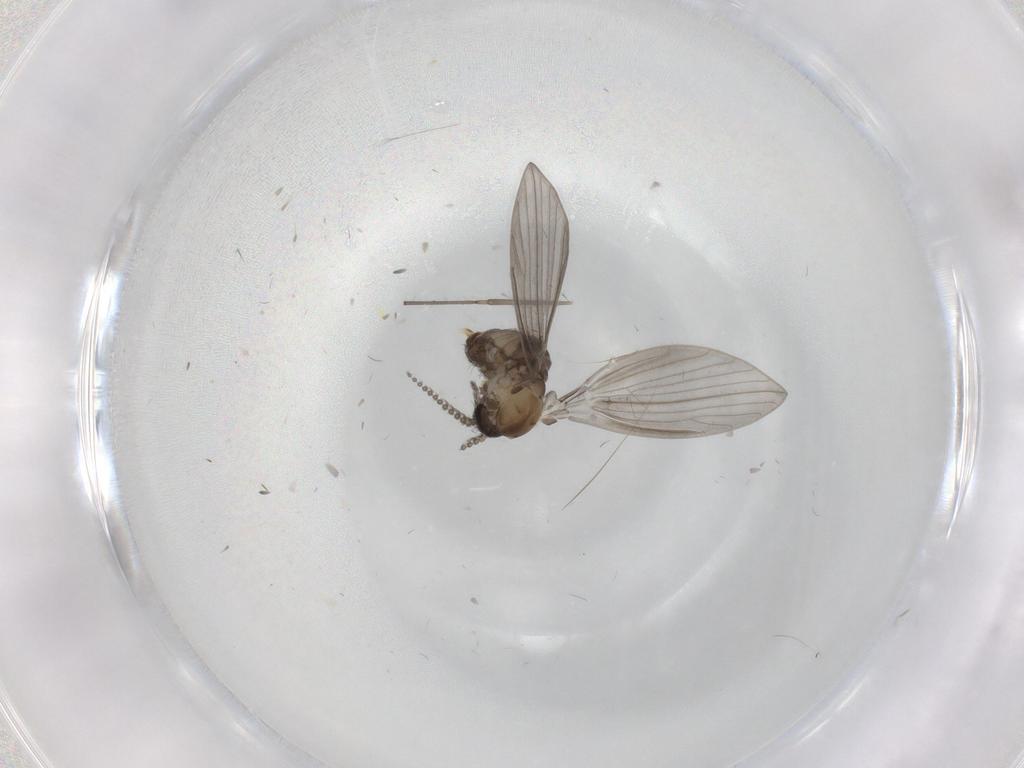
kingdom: Animalia
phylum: Arthropoda
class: Insecta
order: Diptera
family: Psychodidae
